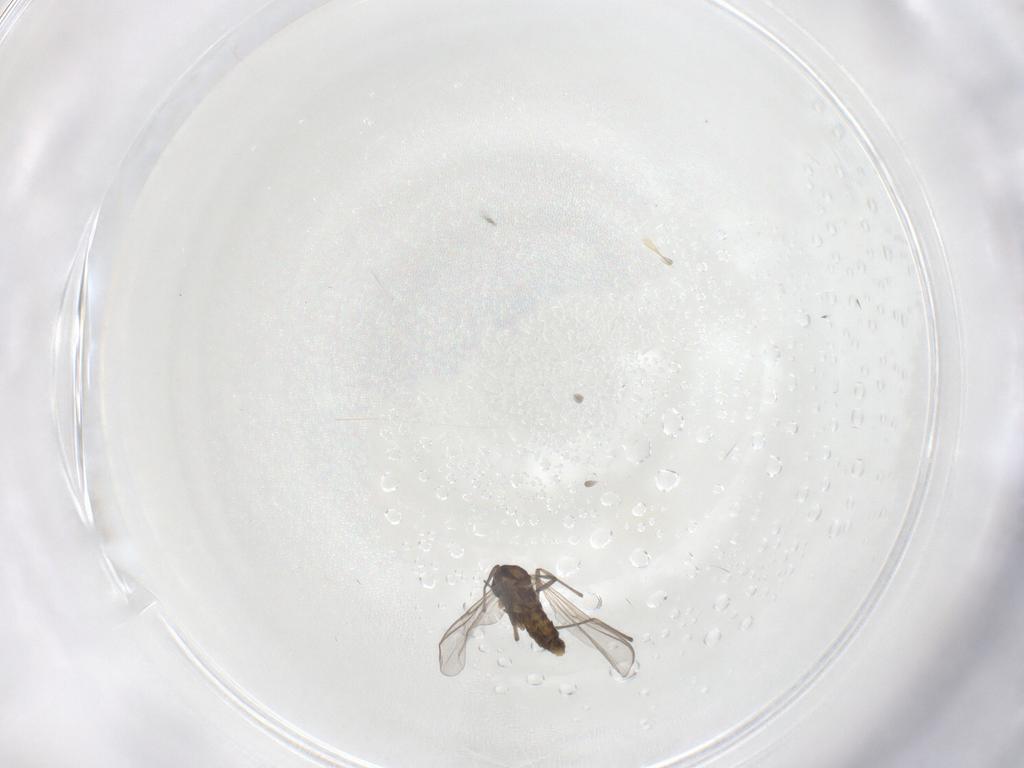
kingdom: Animalia
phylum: Arthropoda
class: Insecta
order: Diptera
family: Chironomidae
